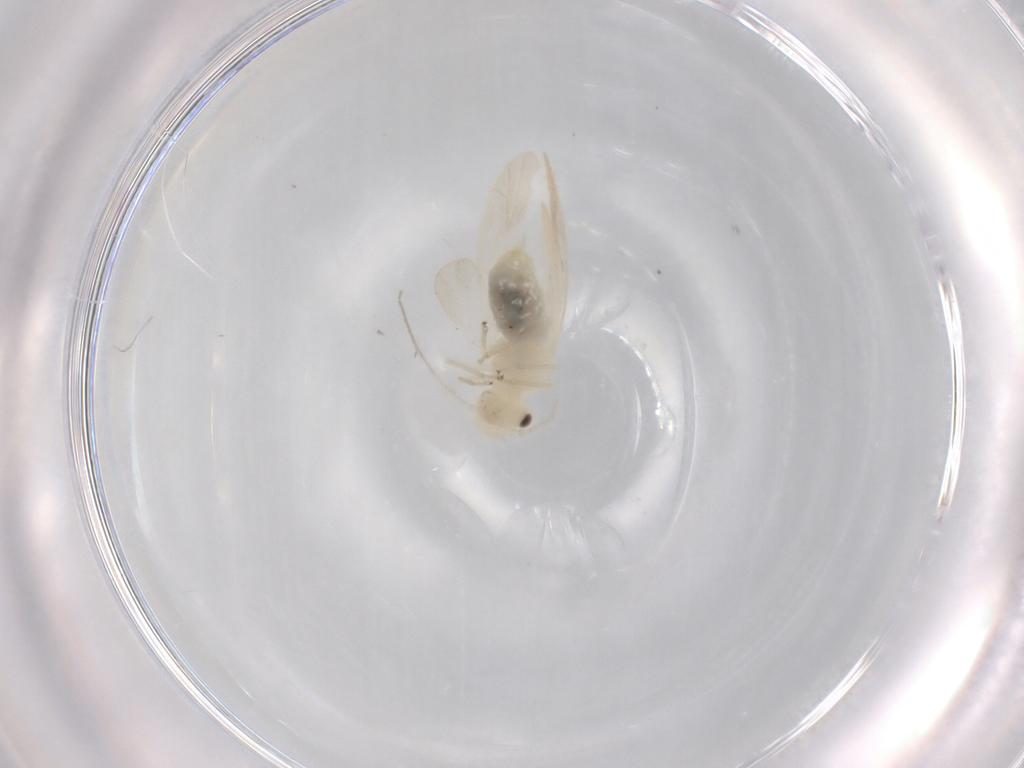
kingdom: Animalia
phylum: Arthropoda
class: Insecta
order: Psocodea
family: Caeciliusidae
